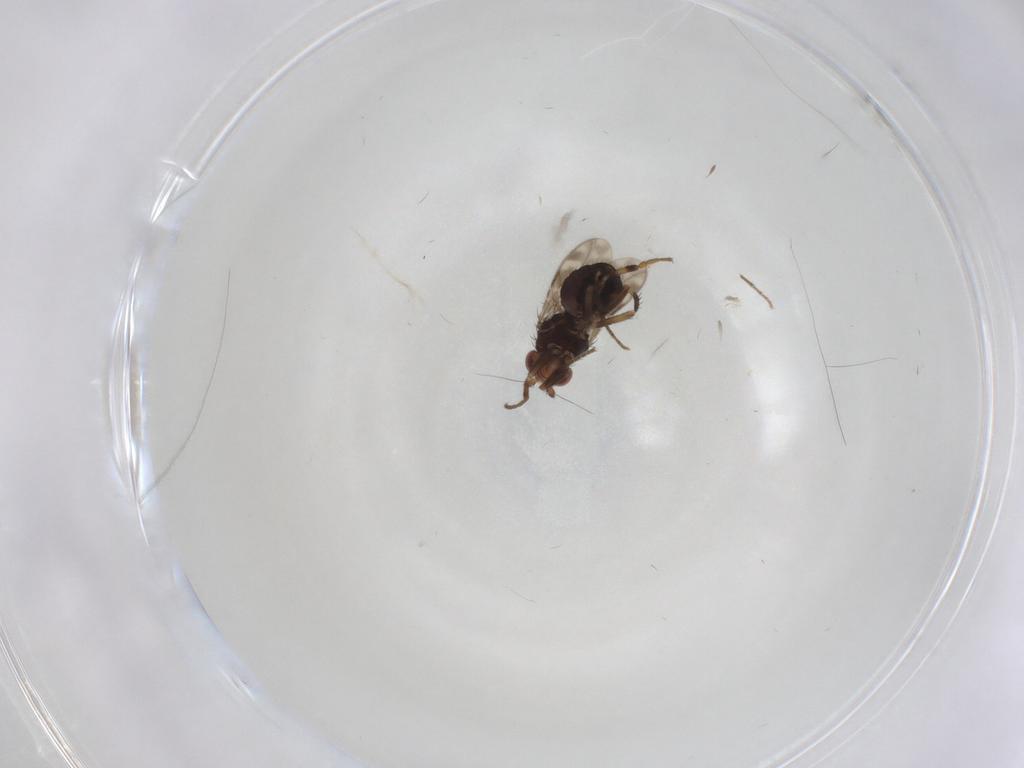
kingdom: Animalia
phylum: Arthropoda
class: Insecta
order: Diptera
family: Sphaeroceridae
